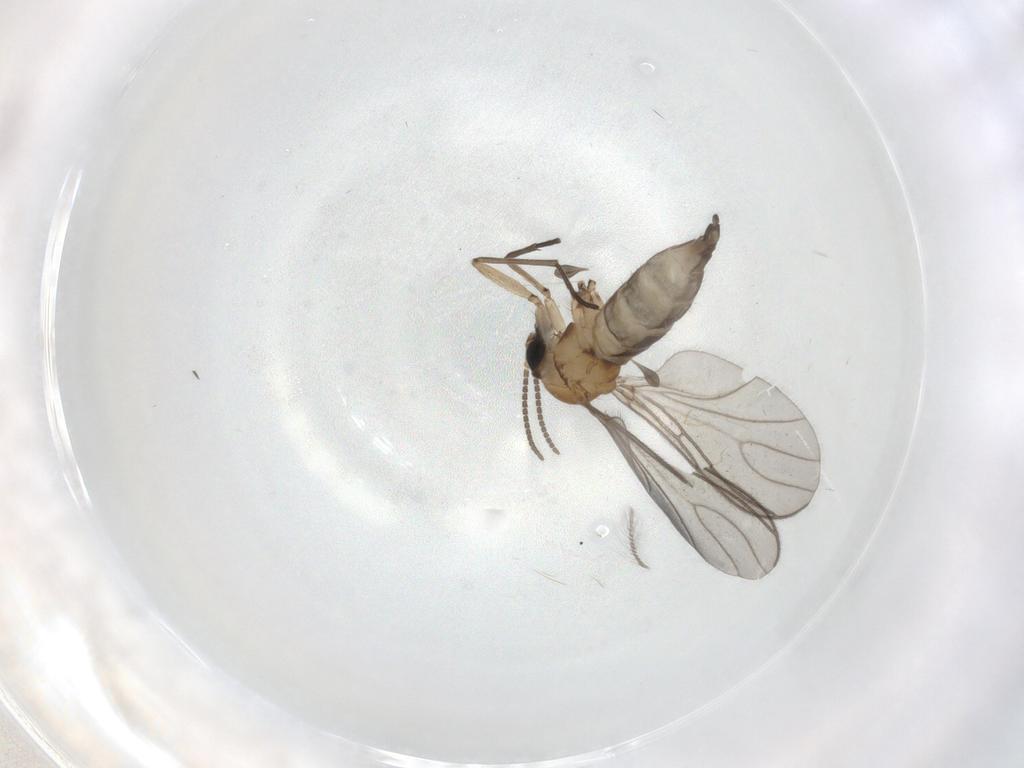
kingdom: Animalia
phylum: Arthropoda
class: Insecta
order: Diptera
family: Sciaridae
